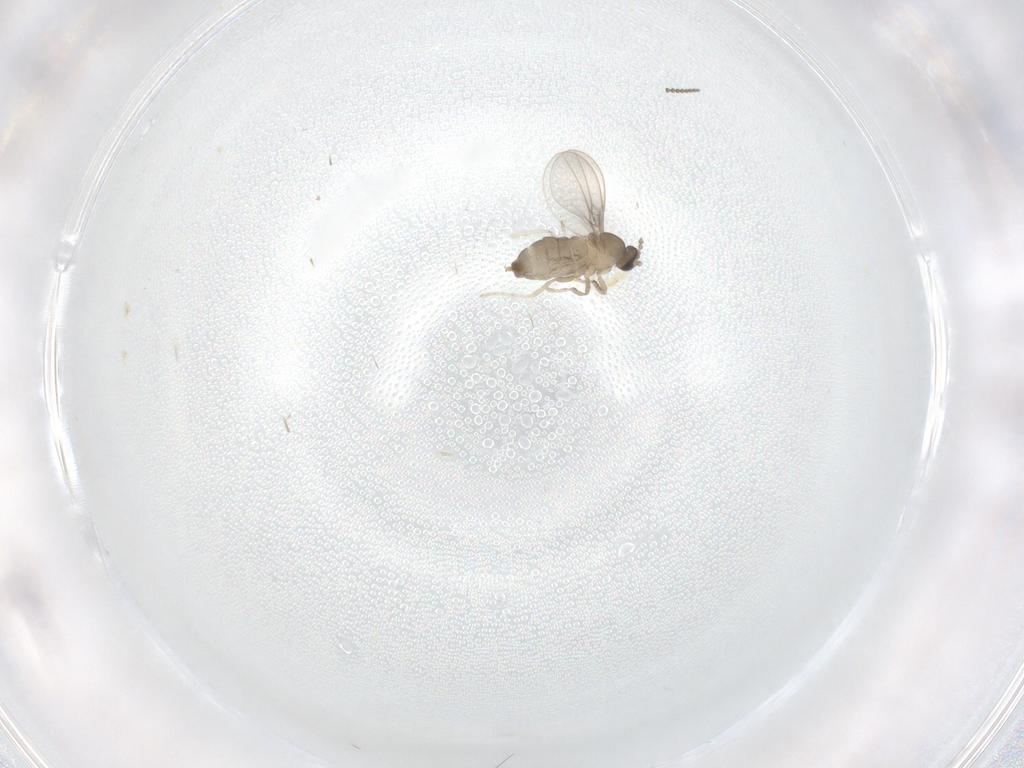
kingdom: Animalia
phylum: Arthropoda
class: Insecta
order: Diptera
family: Cecidomyiidae
